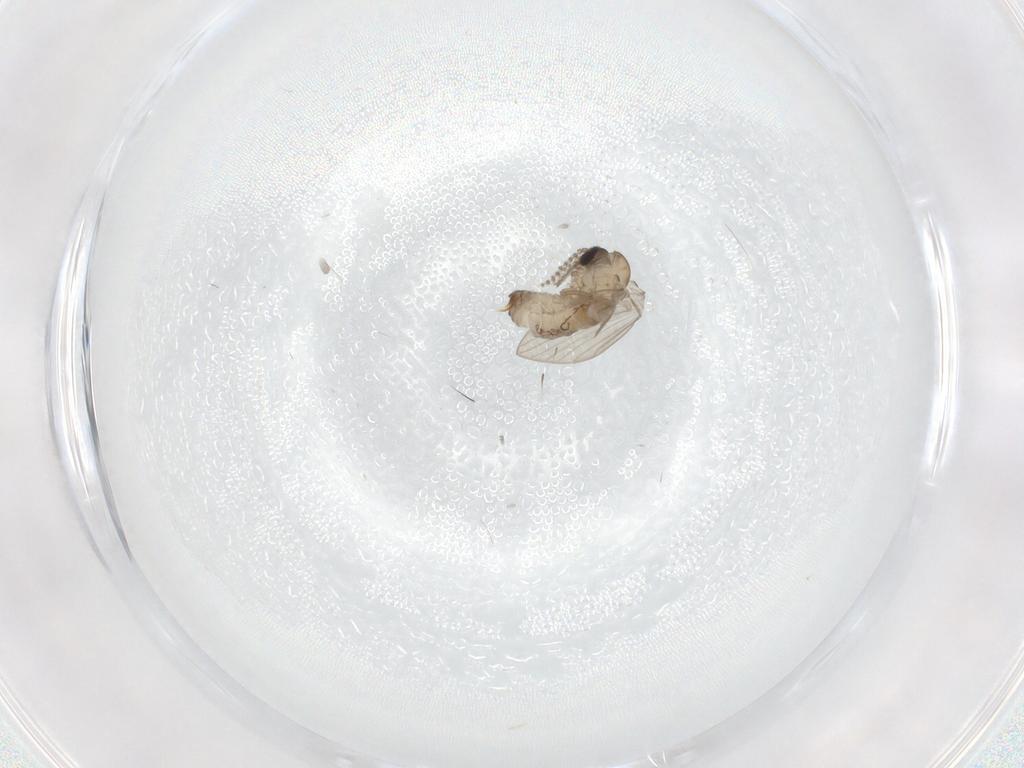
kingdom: Animalia
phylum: Arthropoda
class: Insecta
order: Diptera
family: Psychodidae
